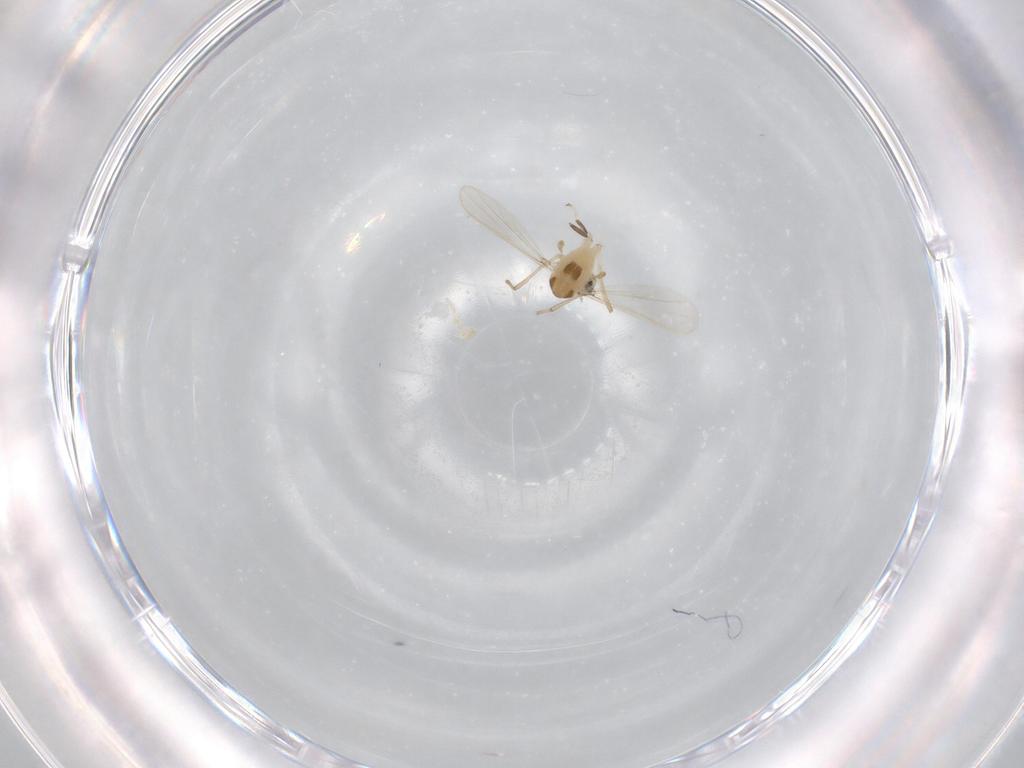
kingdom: Animalia
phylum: Arthropoda
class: Insecta
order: Diptera
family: Scatopsidae
